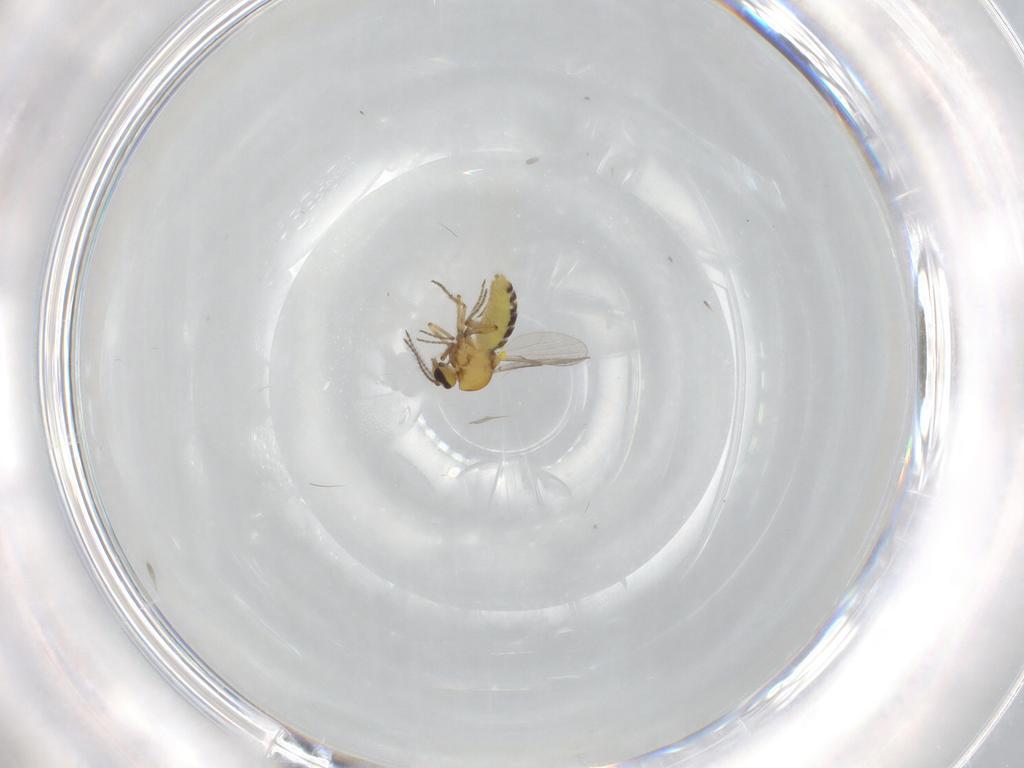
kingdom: Animalia
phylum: Arthropoda
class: Insecta
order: Diptera
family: Ceratopogonidae
